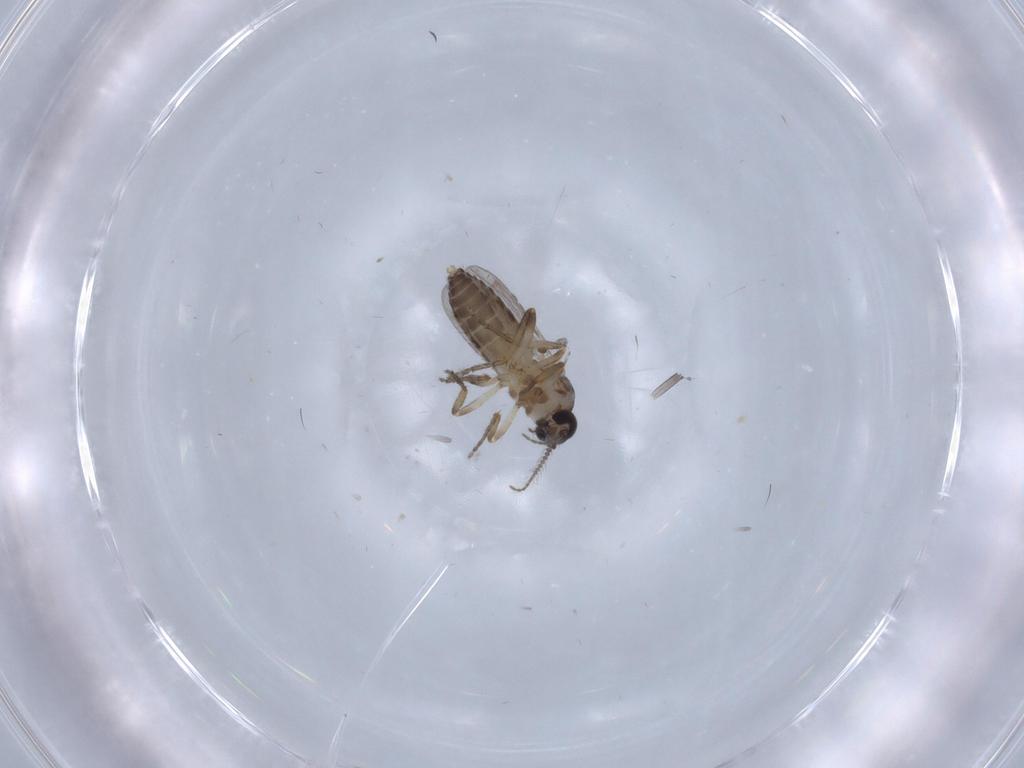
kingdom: Animalia
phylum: Arthropoda
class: Insecta
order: Diptera
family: Ceratopogonidae
